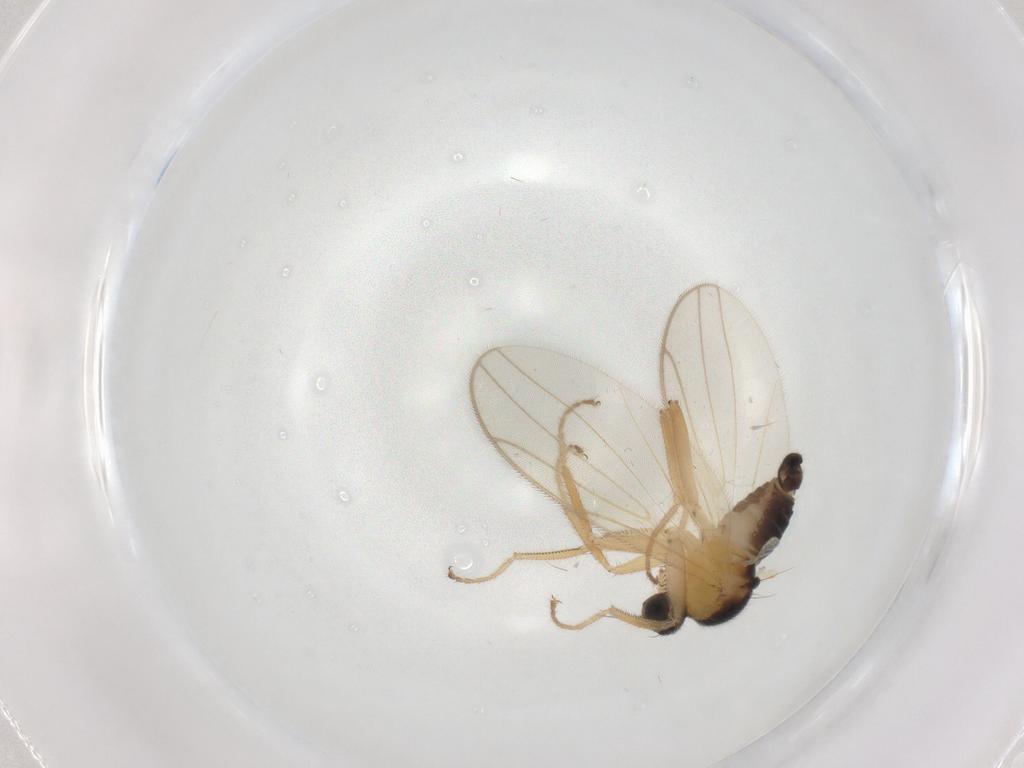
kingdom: Animalia
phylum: Arthropoda
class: Insecta
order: Diptera
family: Hybotidae
